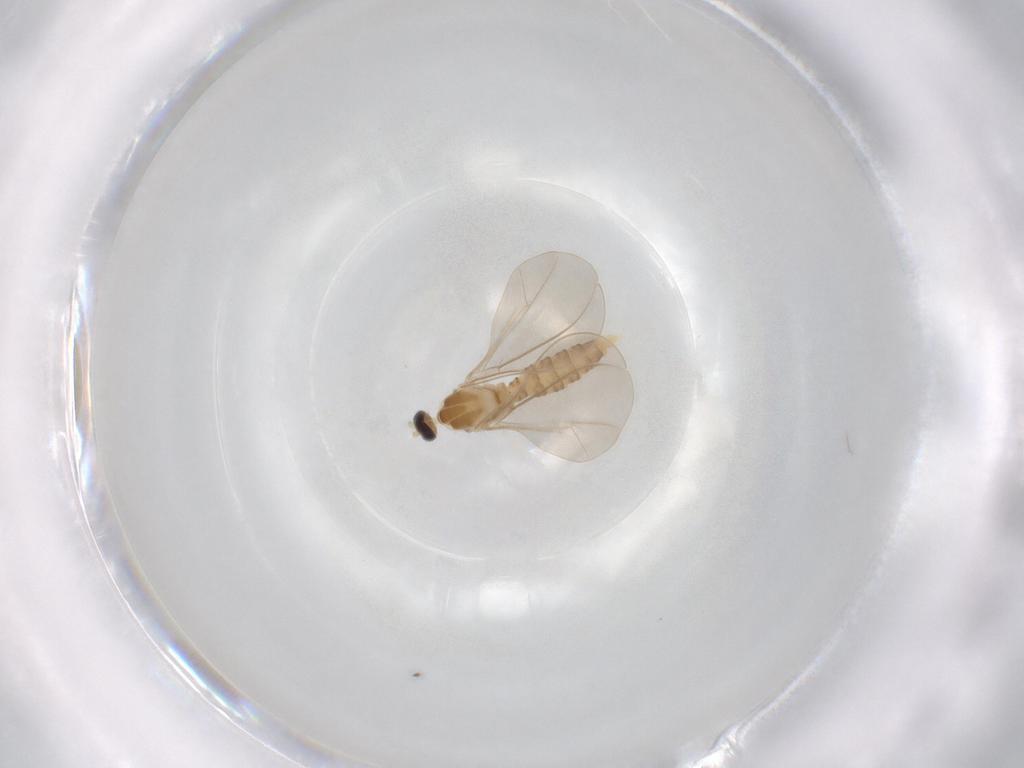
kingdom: Animalia
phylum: Arthropoda
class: Insecta
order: Diptera
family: Cecidomyiidae
